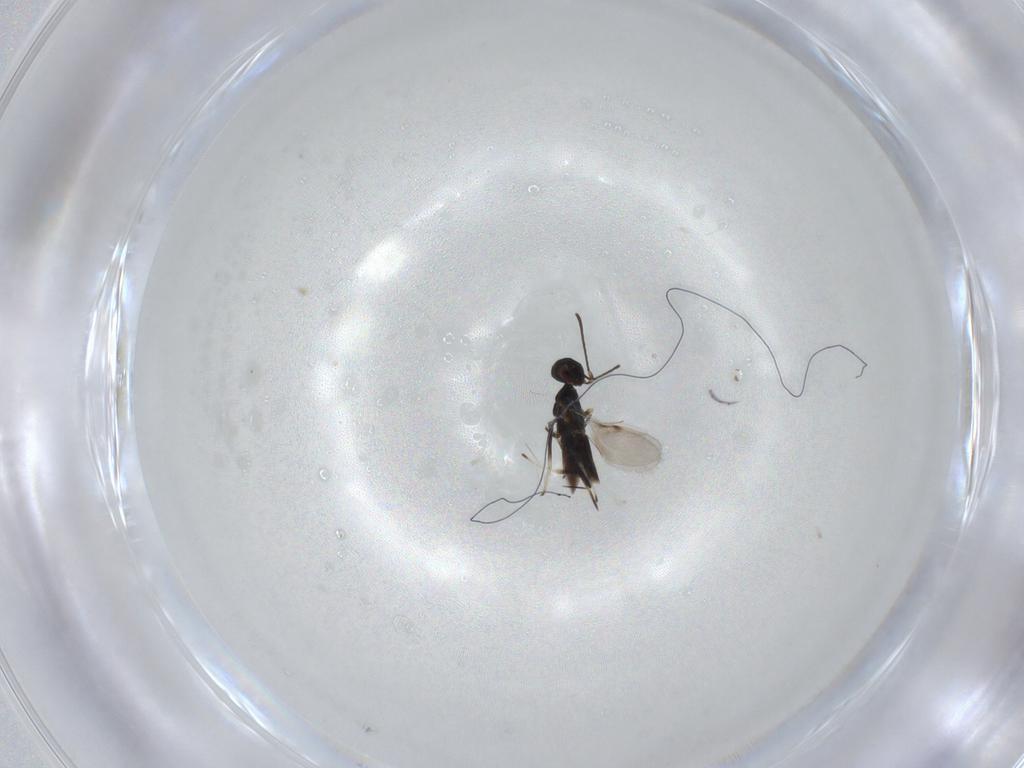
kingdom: Animalia
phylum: Arthropoda
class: Insecta
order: Hymenoptera
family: Encyrtidae
